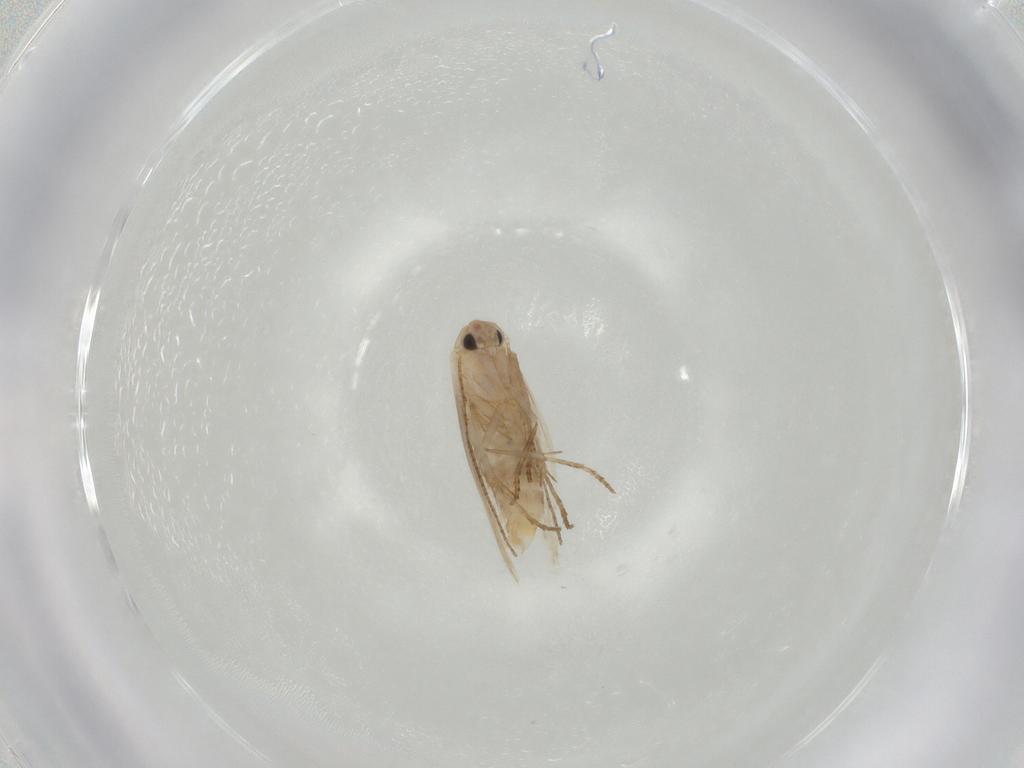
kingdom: Animalia
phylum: Arthropoda
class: Insecta
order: Lepidoptera
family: Bucculatricidae
